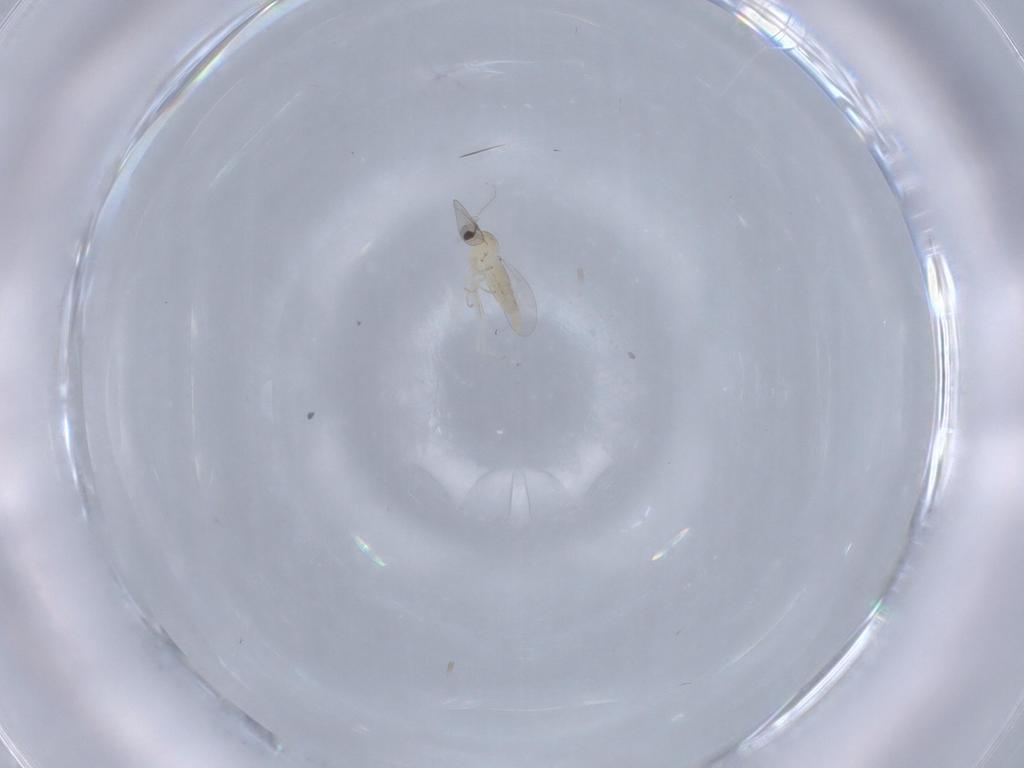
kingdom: Animalia
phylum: Arthropoda
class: Insecta
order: Diptera
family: Cecidomyiidae
